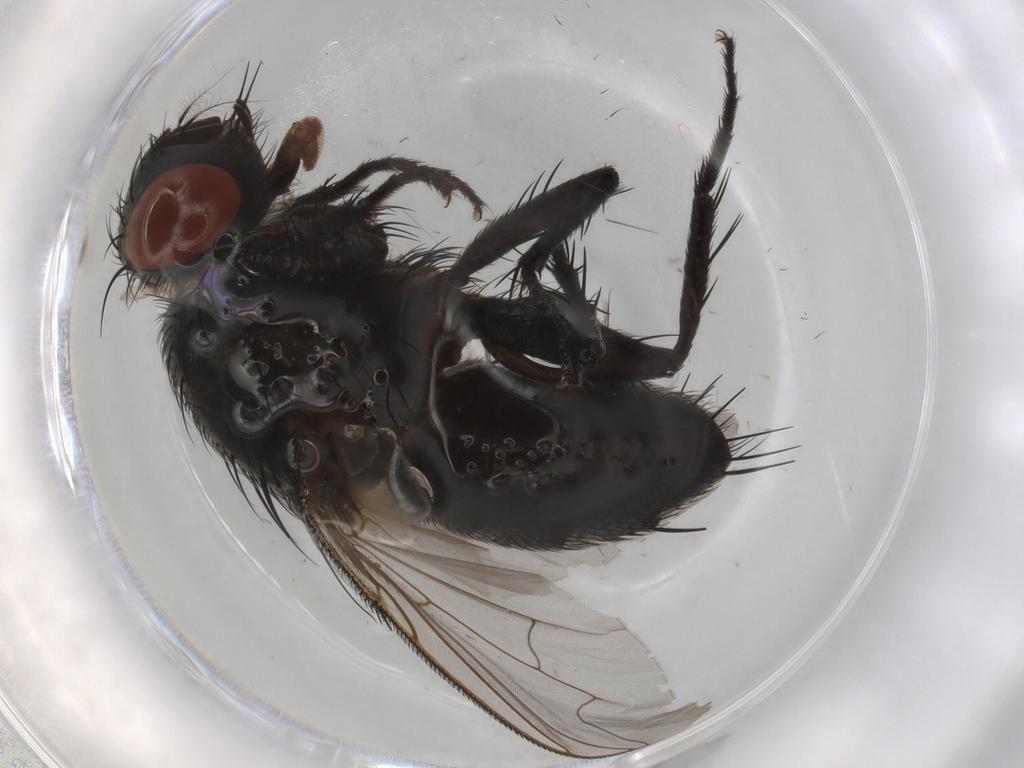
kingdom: Animalia
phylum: Arthropoda
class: Insecta
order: Diptera
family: Sarcophagidae
